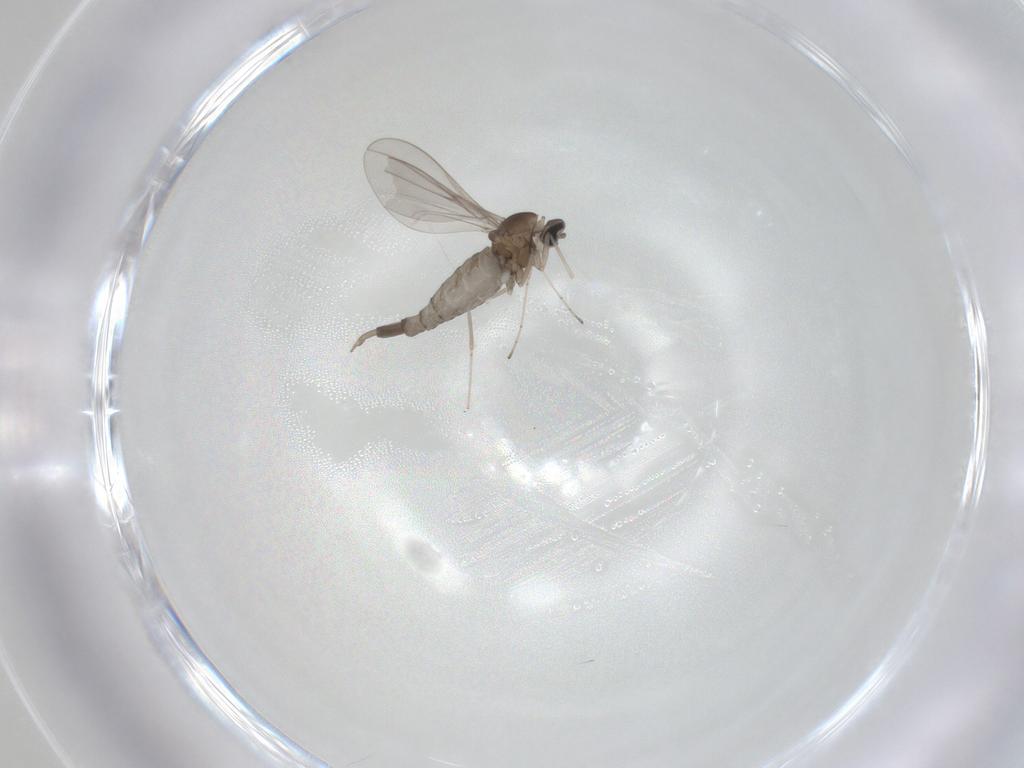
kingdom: Animalia
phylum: Arthropoda
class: Insecta
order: Diptera
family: Cecidomyiidae
